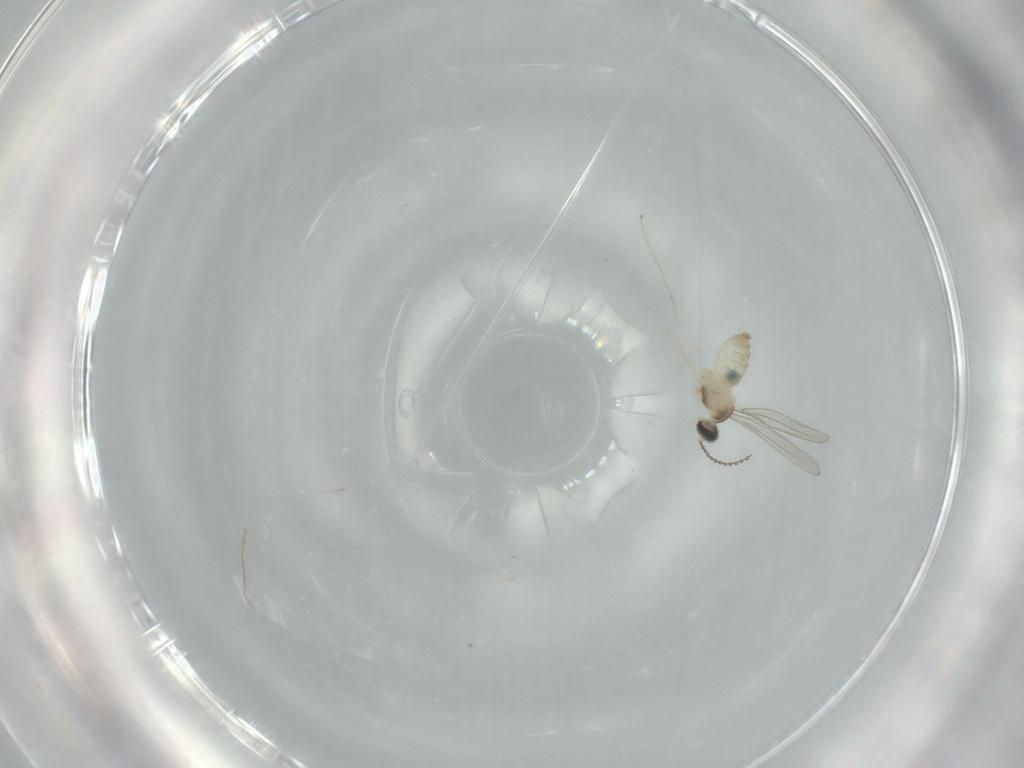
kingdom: Animalia
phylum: Arthropoda
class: Insecta
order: Diptera
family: Cecidomyiidae
